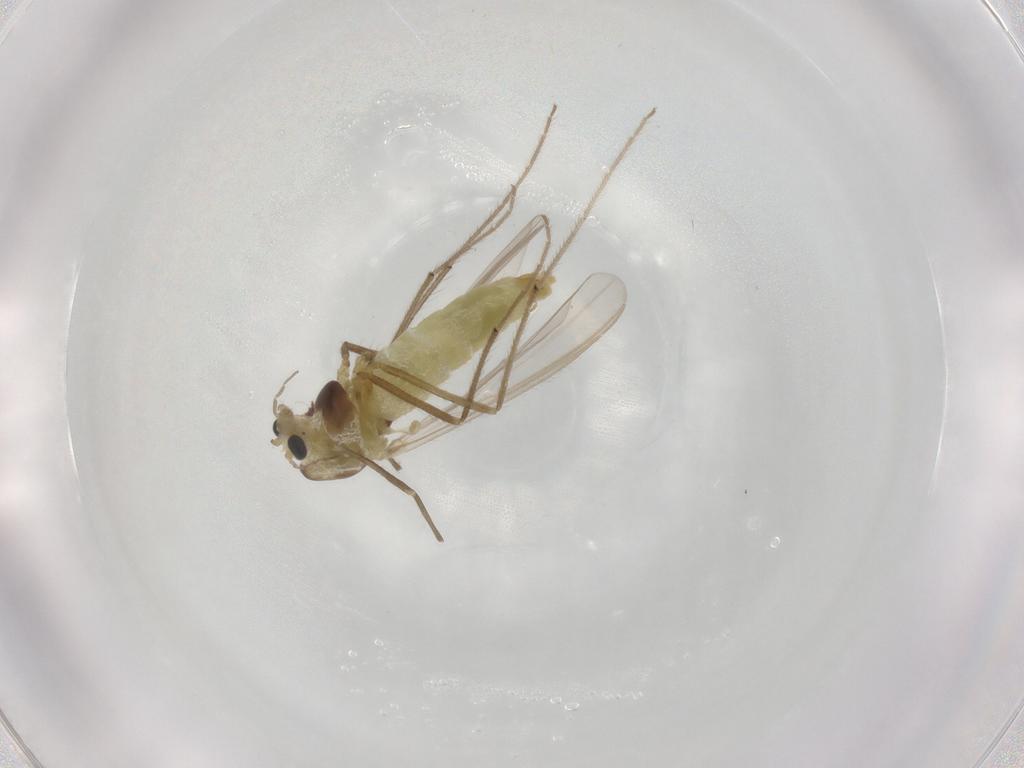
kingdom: Animalia
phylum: Arthropoda
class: Insecta
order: Diptera
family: Chironomidae
